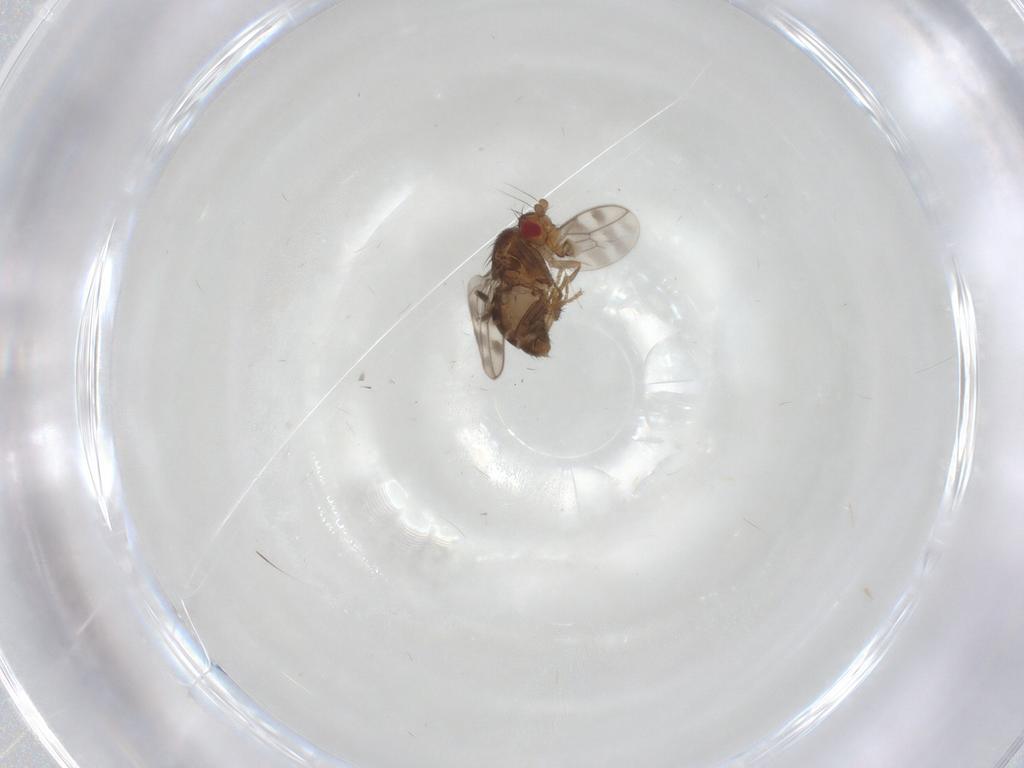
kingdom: Animalia
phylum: Arthropoda
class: Insecta
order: Diptera
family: Sphaeroceridae
